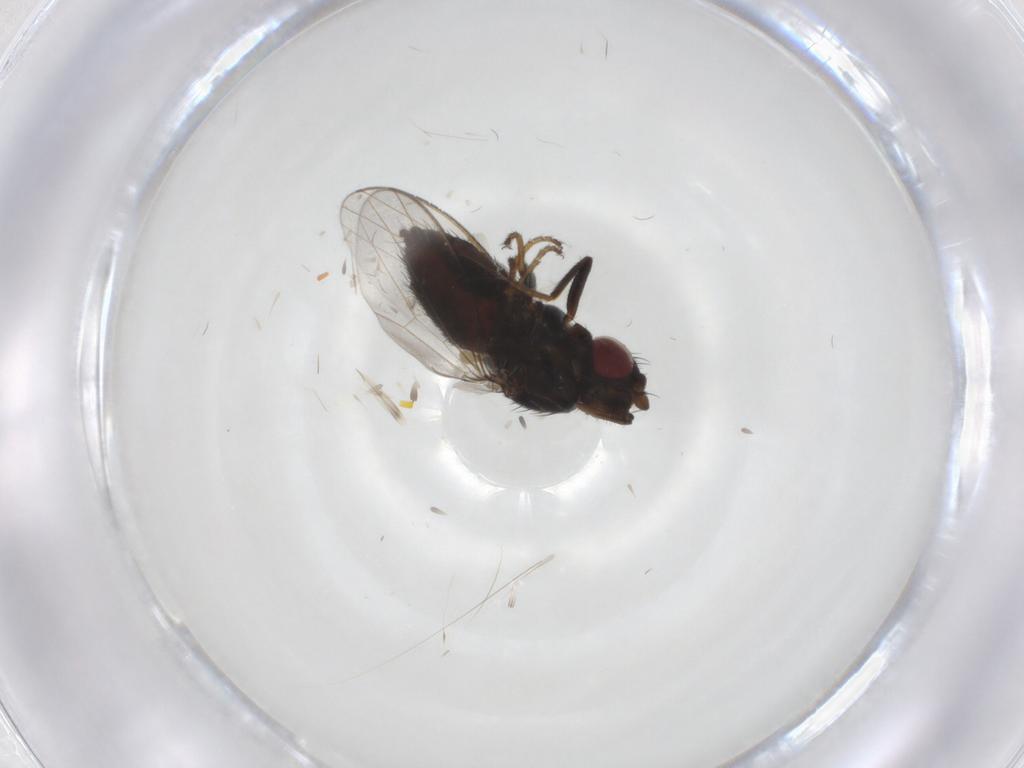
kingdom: Animalia
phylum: Arthropoda
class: Insecta
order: Diptera
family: Milichiidae
